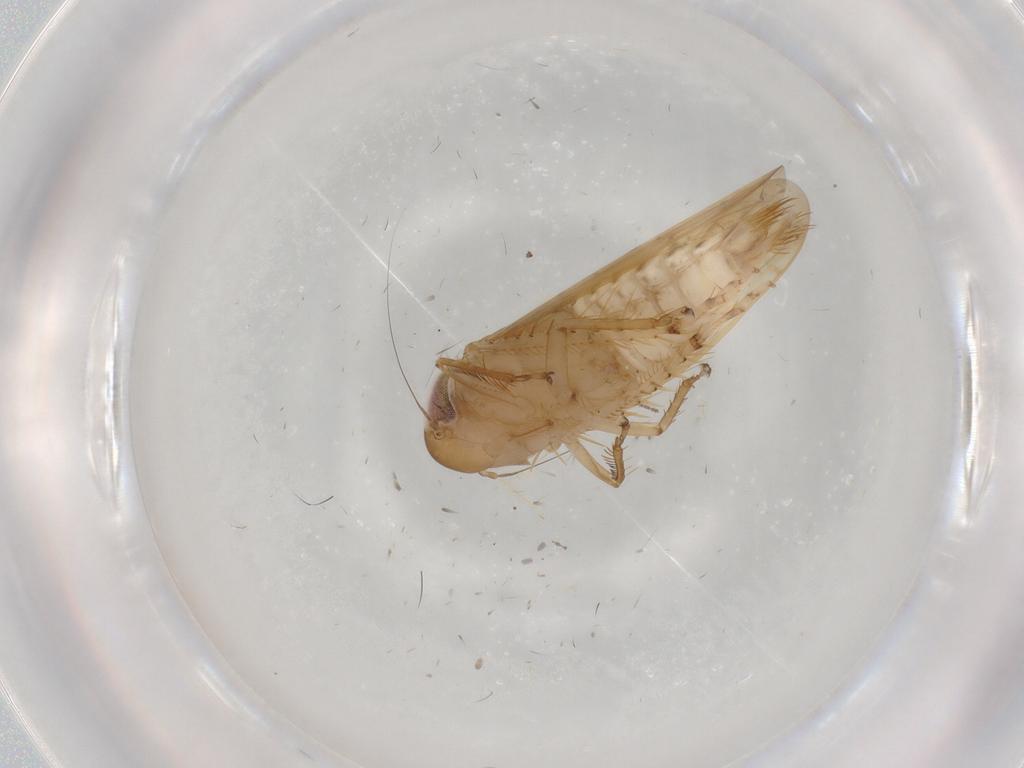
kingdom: Animalia
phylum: Arthropoda
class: Insecta
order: Hemiptera
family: Cicadellidae
